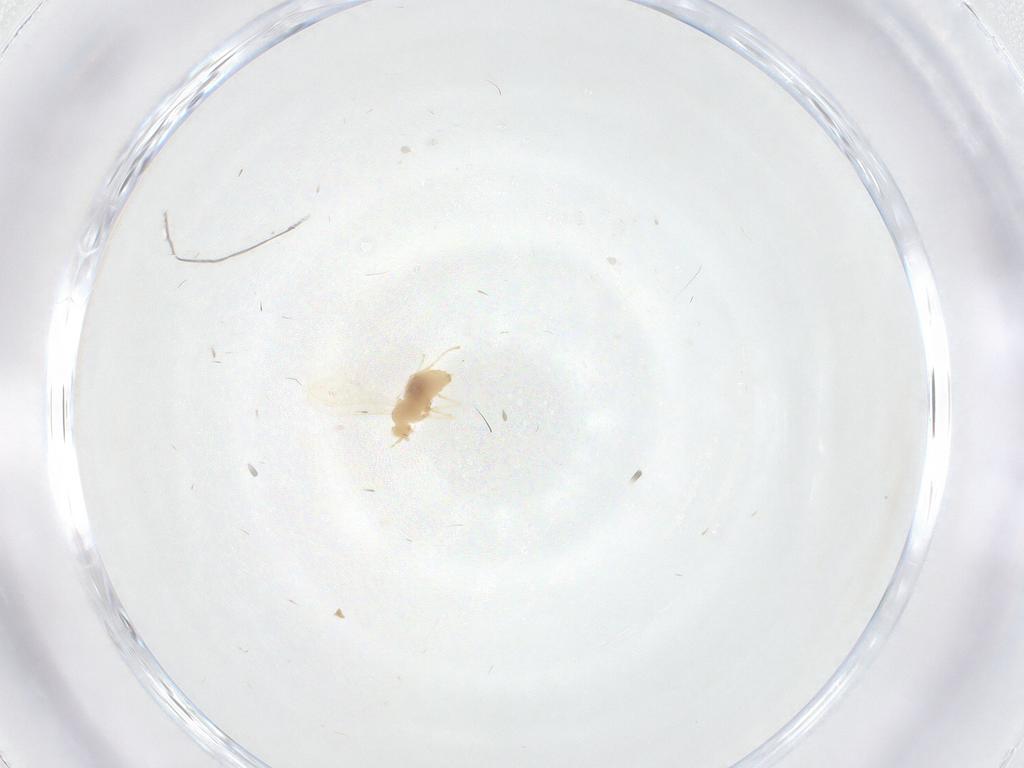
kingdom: Animalia
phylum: Arthropoda
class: Insecta
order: Diptera
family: Cecidomyiidae
